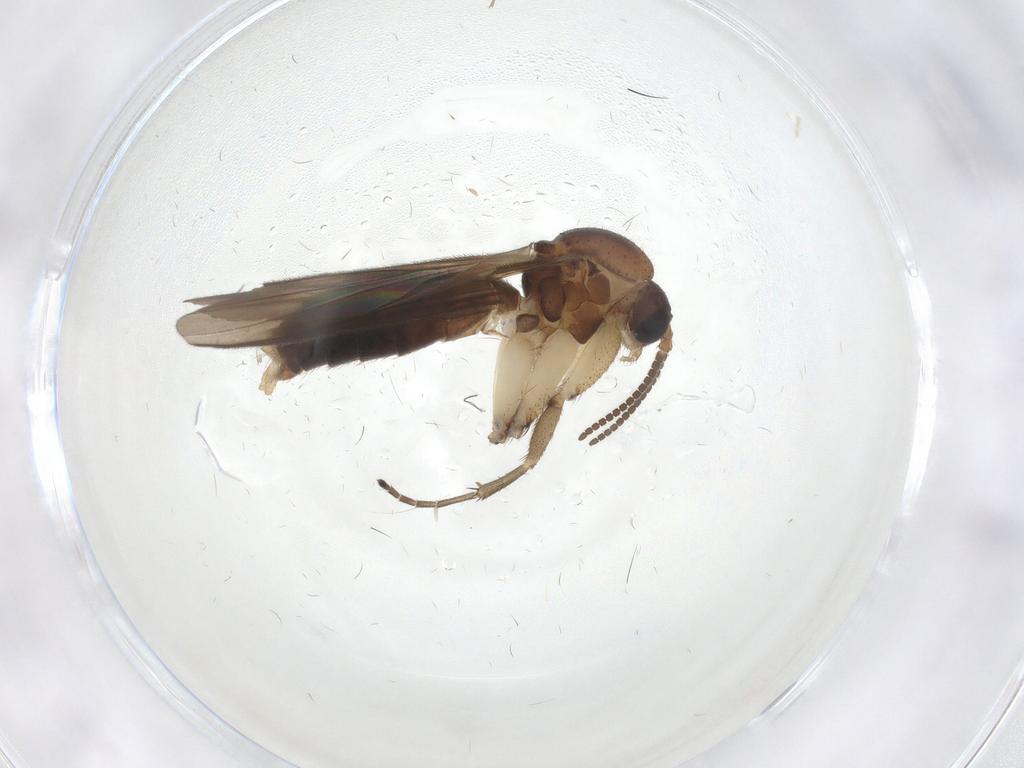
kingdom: Animalia
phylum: Arthropoda
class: Insecta
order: Diptera
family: Mycetophilidae
